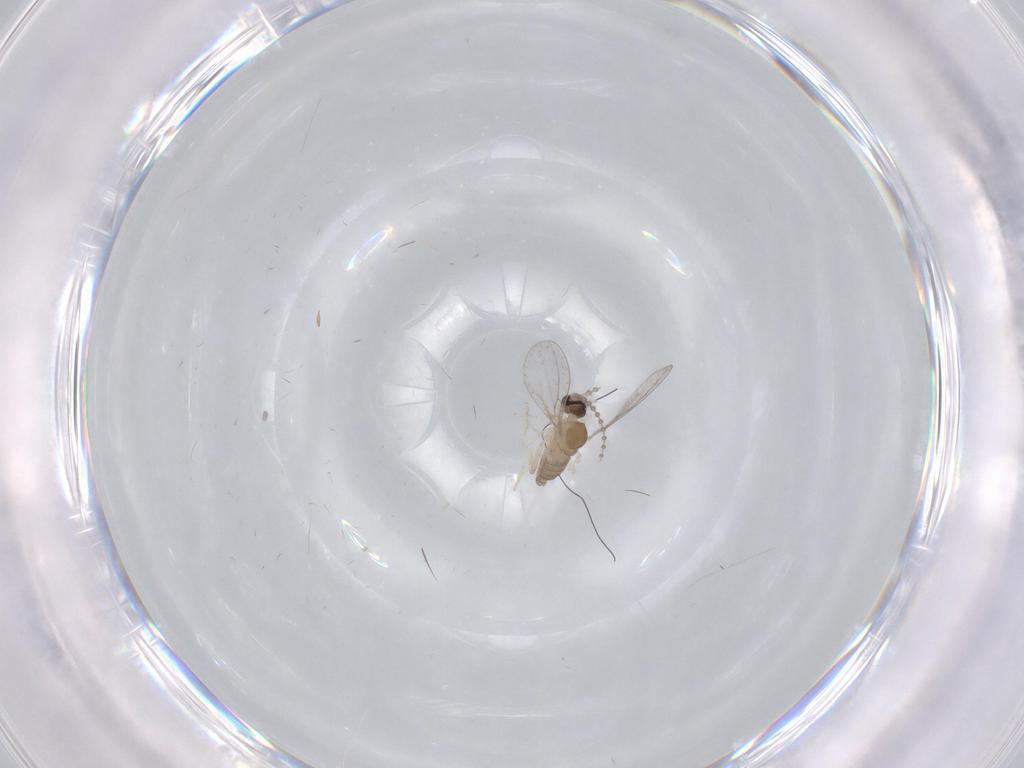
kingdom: Animalia
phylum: Arthropoda
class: Insecta
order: Diptera
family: Cecidomyiidae
